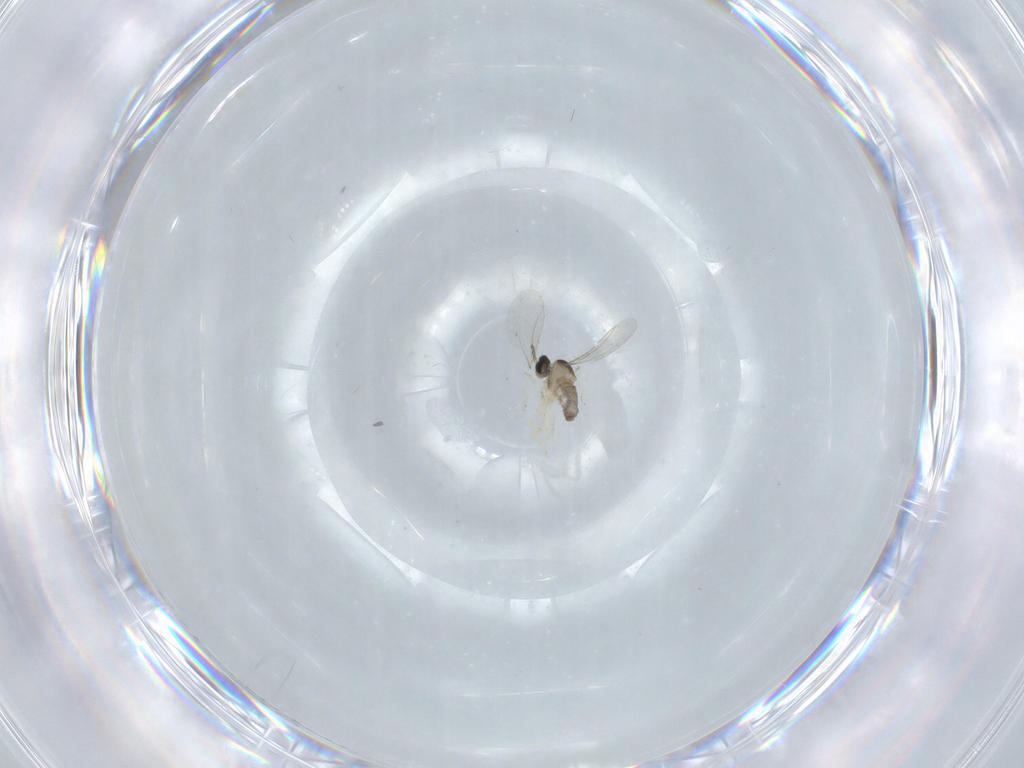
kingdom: Animalia
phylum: Arthropoda
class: Insecta
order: Diptera
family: Cecidomyiidae
